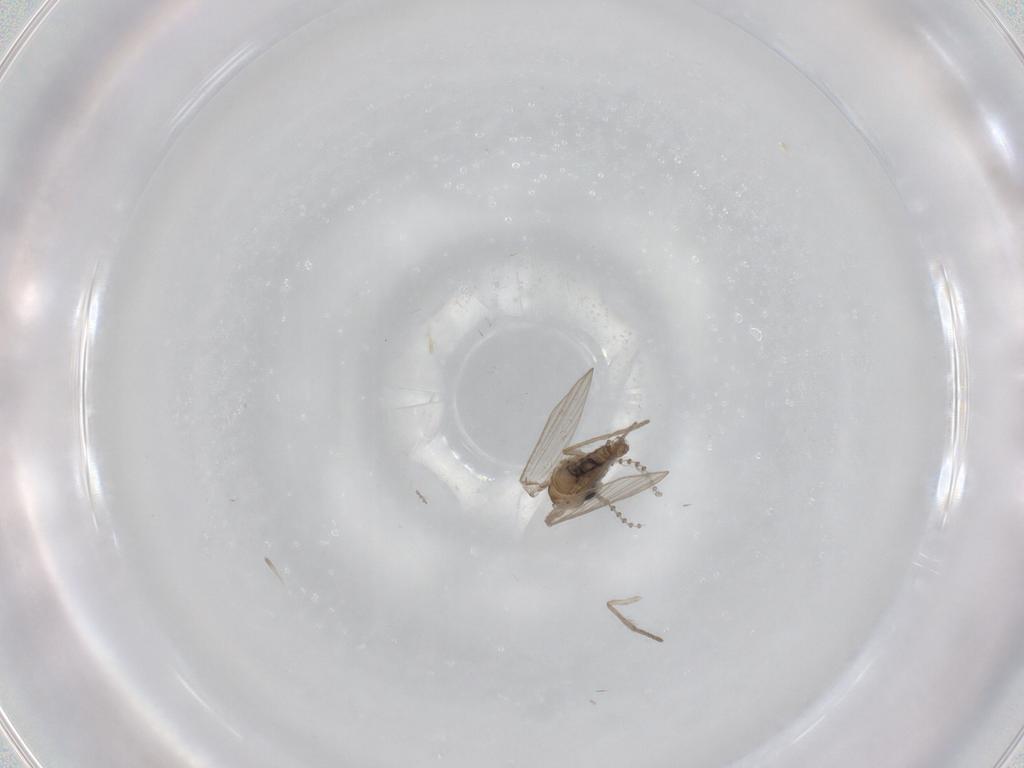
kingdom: Animalia
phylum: Arthropoda
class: Insecta
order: Diptera
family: Psychodidae
